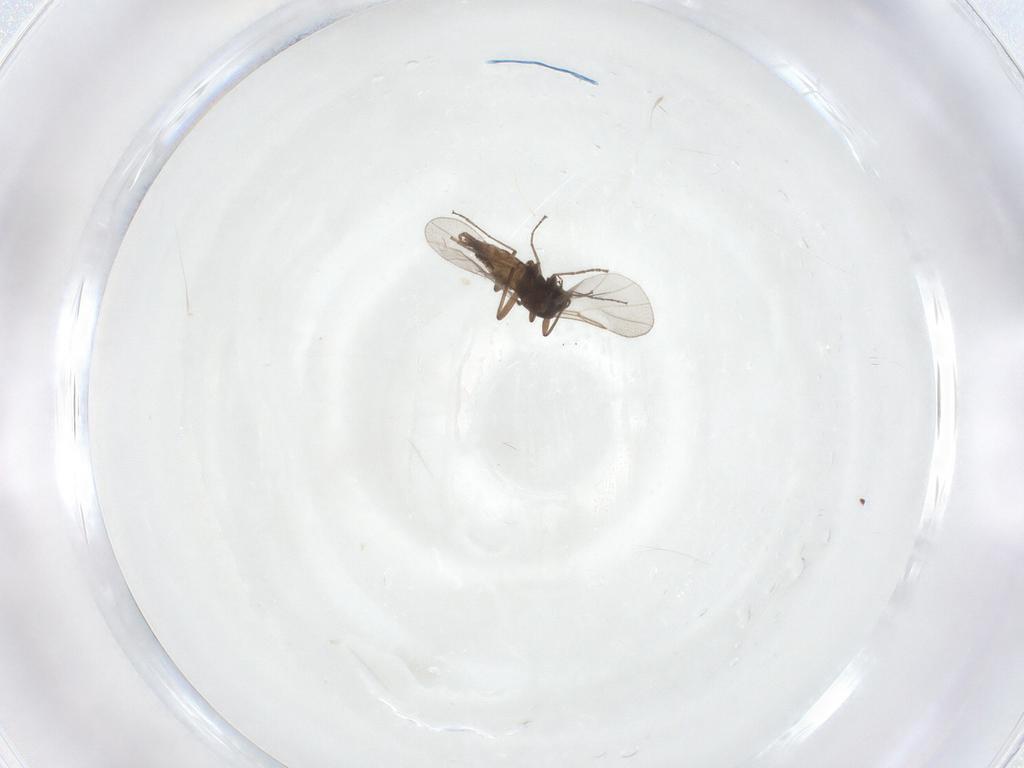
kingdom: Animalia
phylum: Arthropoda
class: Insecta
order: Diptera
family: Cecidomyiidae
